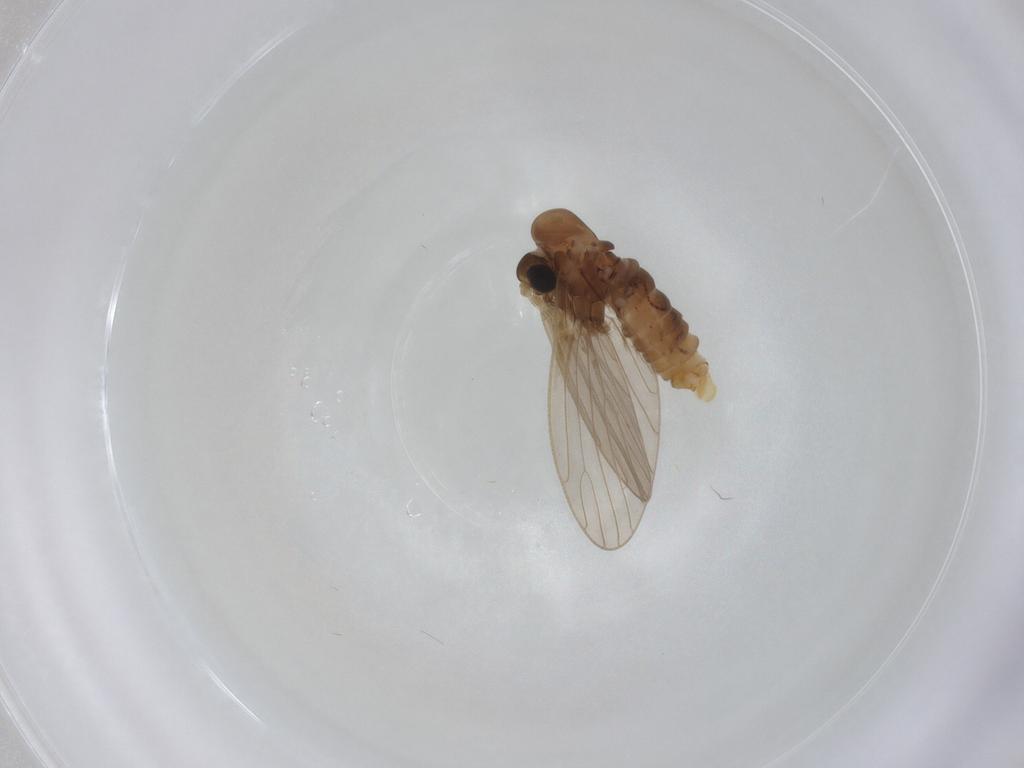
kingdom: Animalia
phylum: Arthropoda
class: Insecta
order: Diptera
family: Psychodidae
